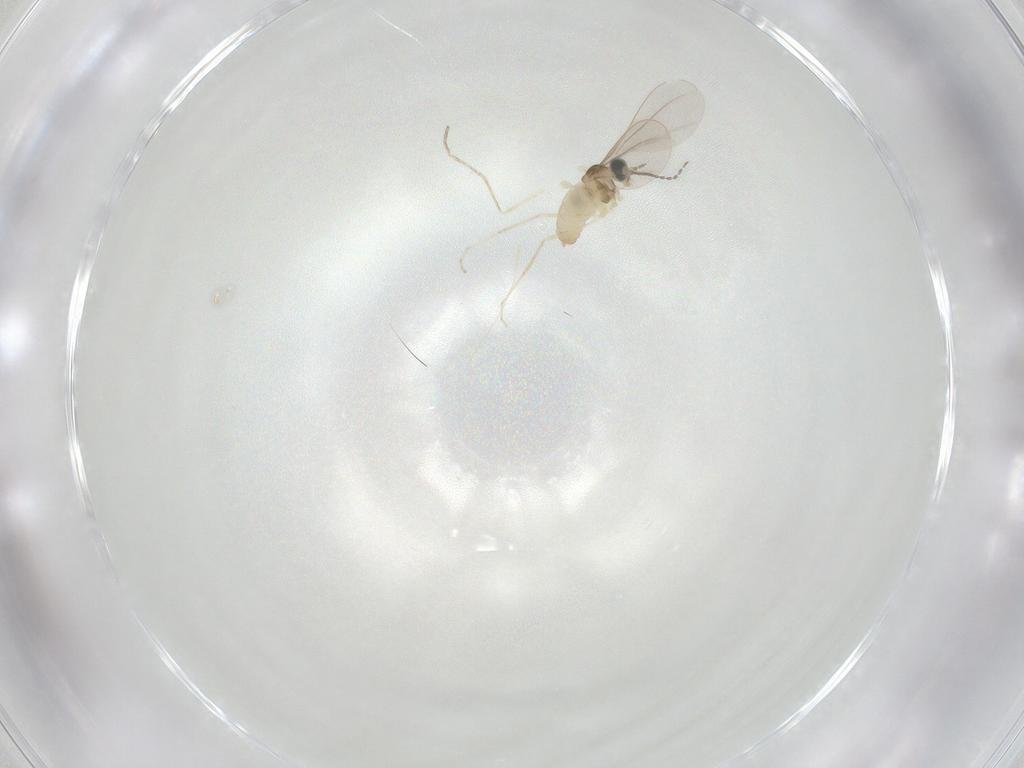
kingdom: Animalia
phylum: Arthropoda
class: Insecta
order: Diptera
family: Cecidomyiidae
